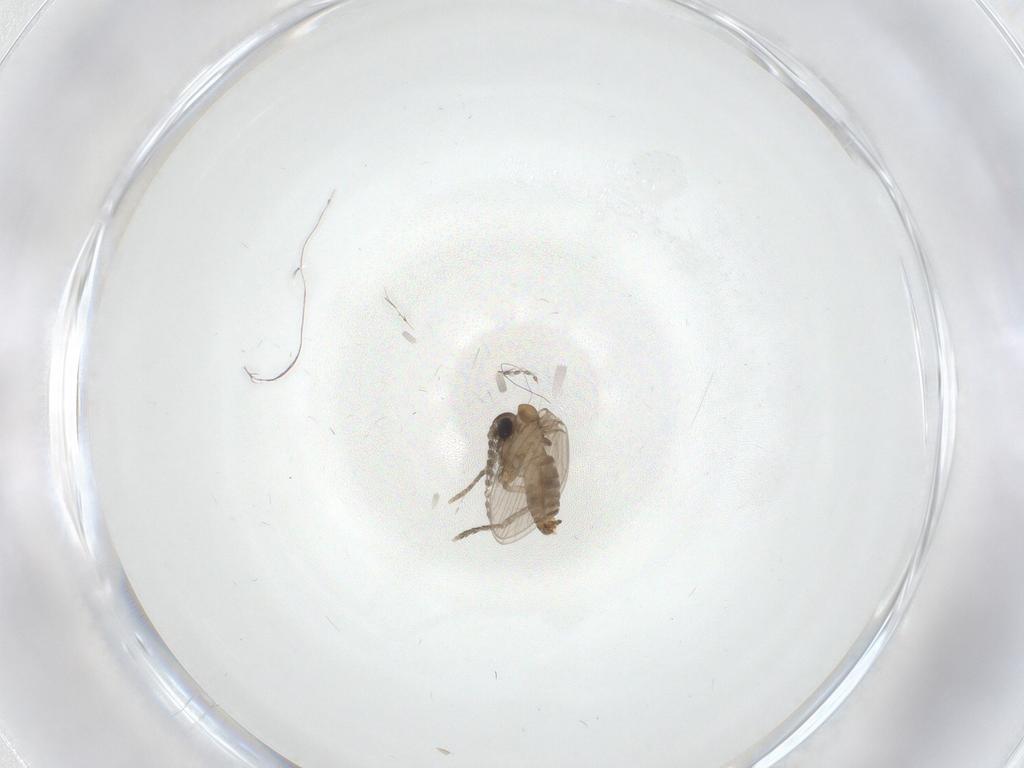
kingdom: Animalia
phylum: Arthropoda
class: Insecta
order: Diptera
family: Psychodidae
